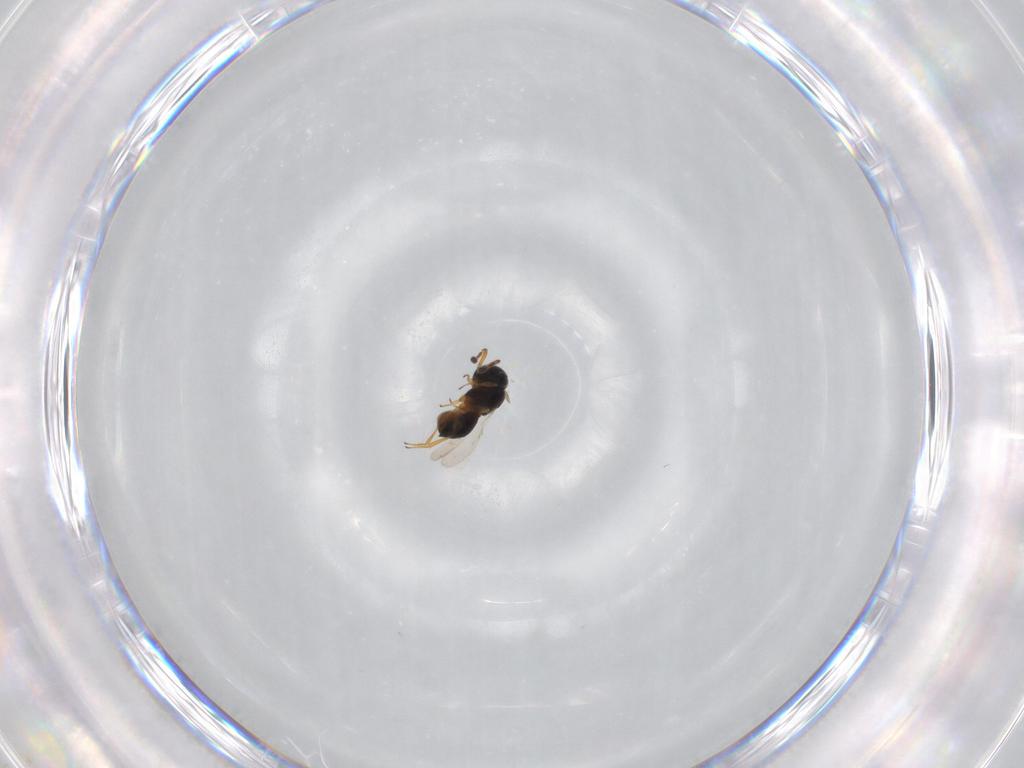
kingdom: Animalia
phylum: Arthropoda
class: Insecta
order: Hymenoptera
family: Scelionidae
